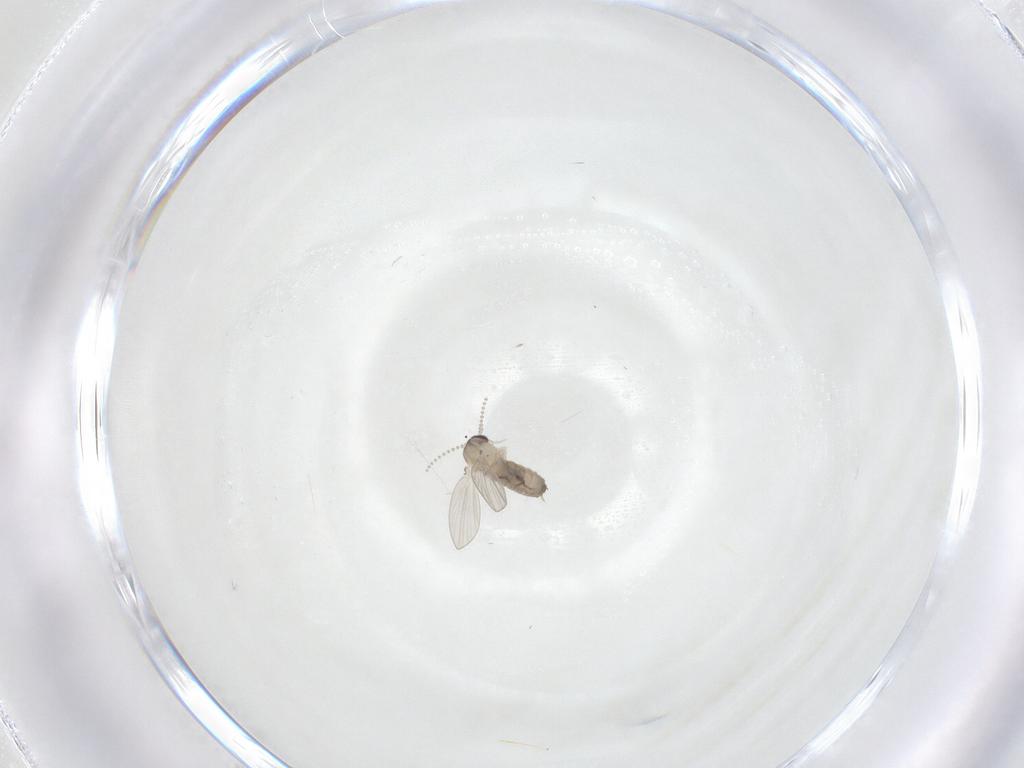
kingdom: Animalia
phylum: Arthropoda
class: Insecta
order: Diptera
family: Psychodidae
